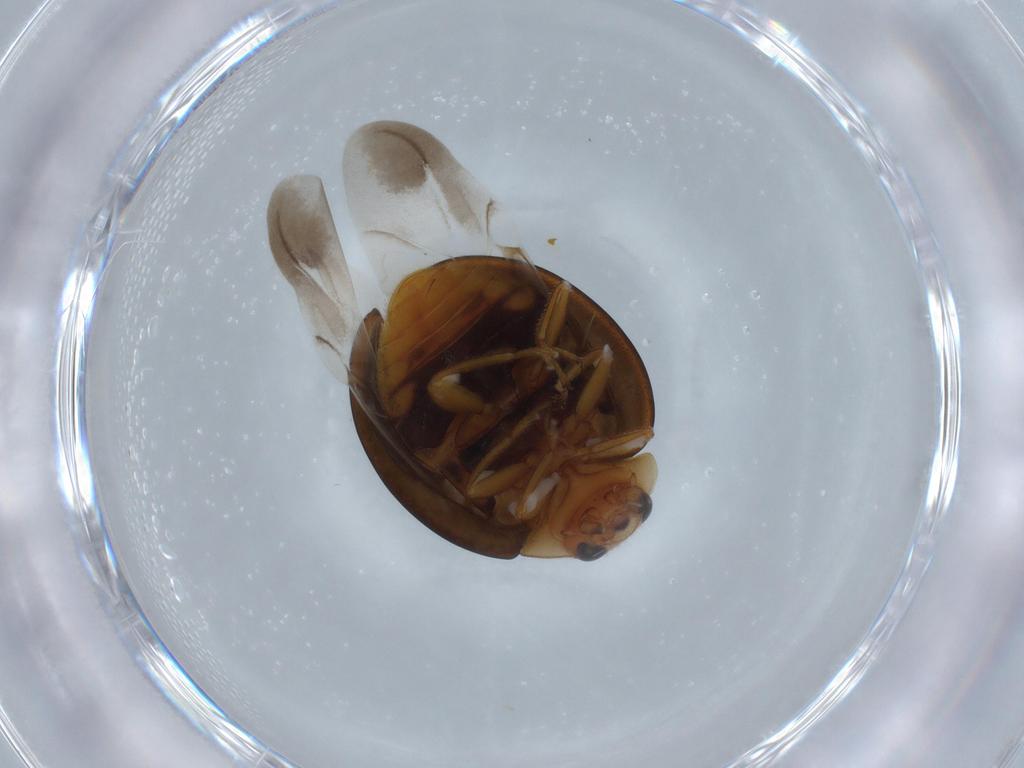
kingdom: Animalia
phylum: Arthropoda
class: Insecta
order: Coleoptera
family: Coccinellidae
